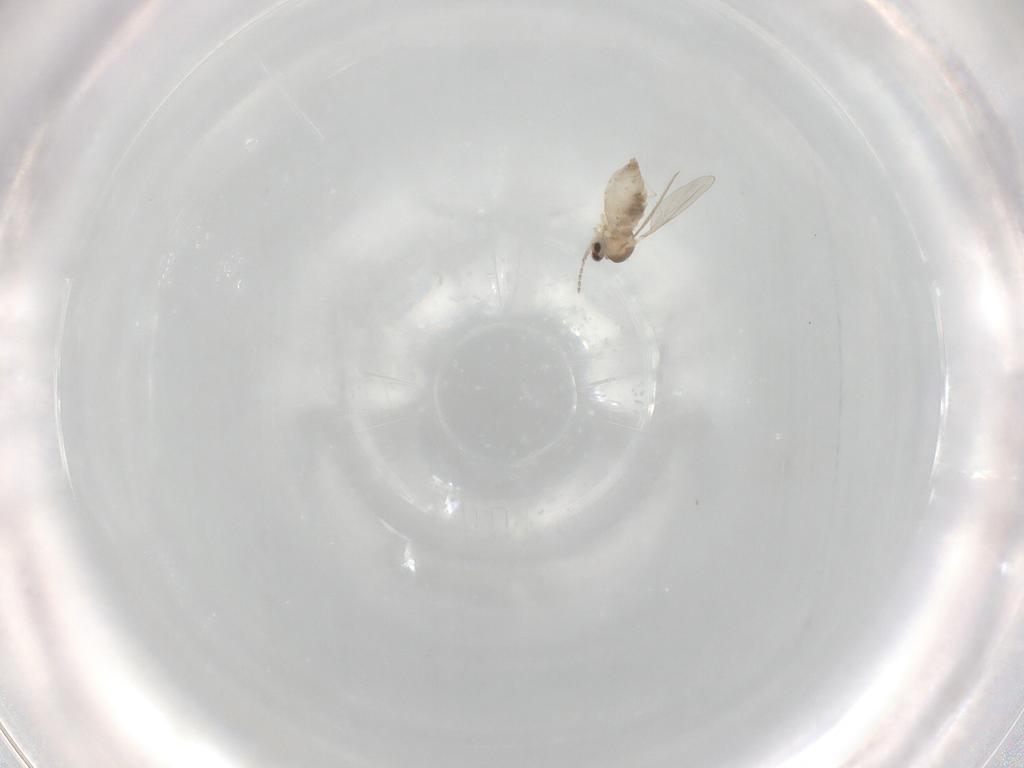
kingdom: Animalia
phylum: Arthropoda
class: Insecta
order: Diptera
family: Cecidomyiidae
